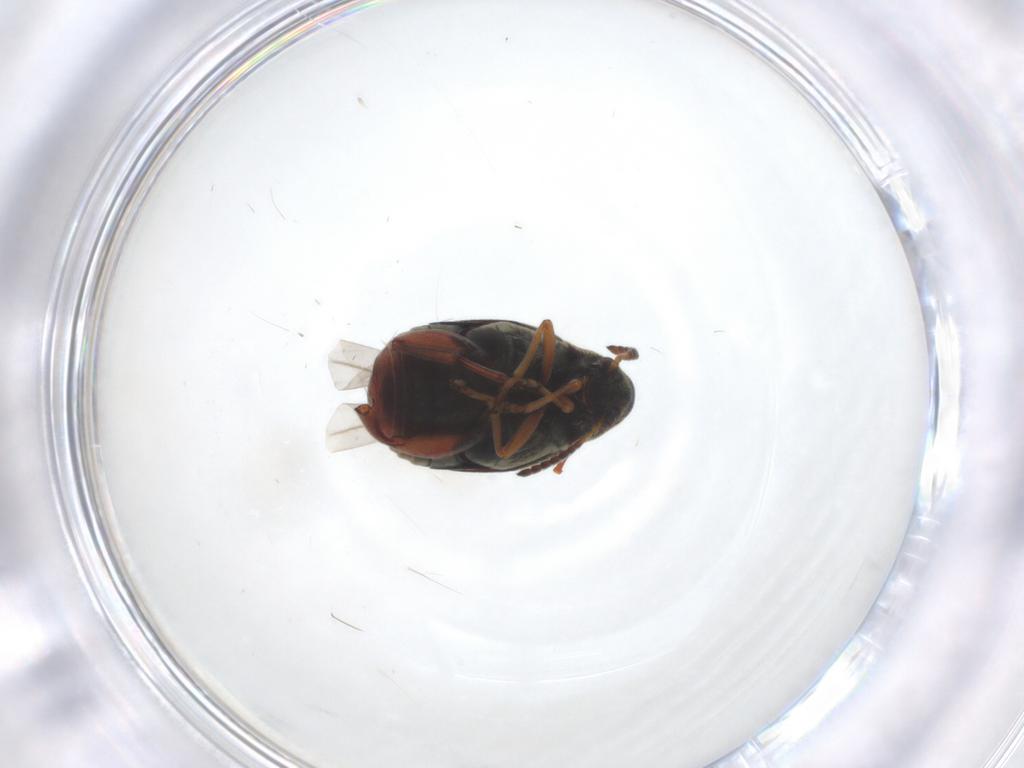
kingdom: Animalia
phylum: Arthropoda
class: Insecta
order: Coleoptera
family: Chrysomelidae
